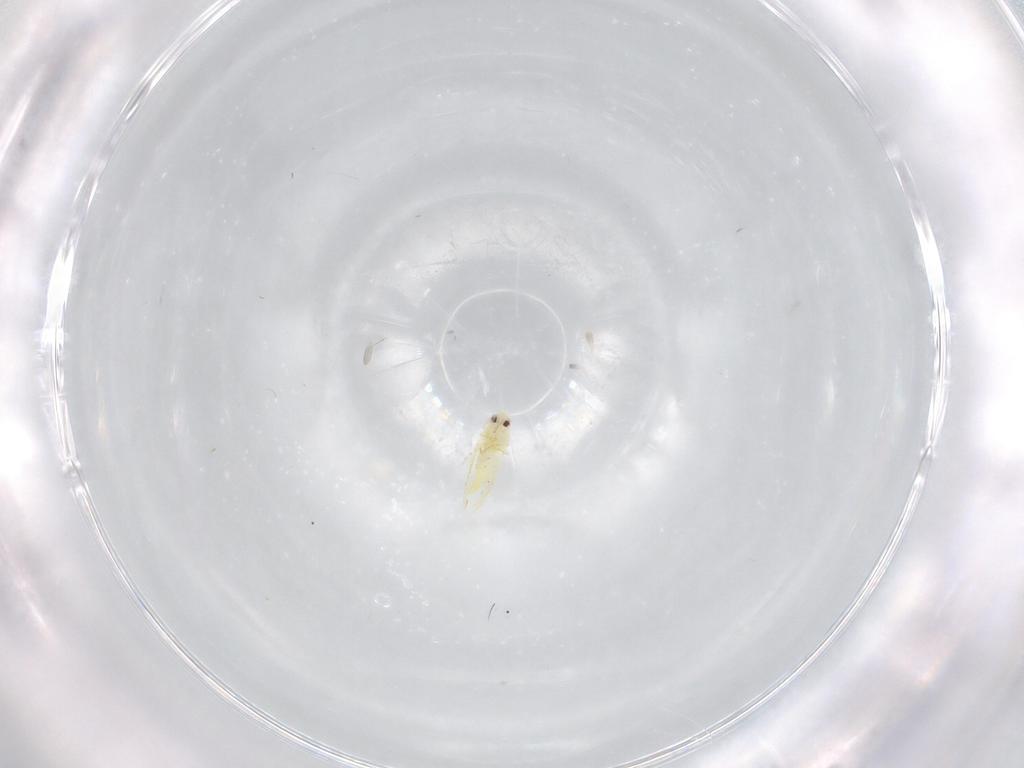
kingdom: Animalia
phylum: Arthropoda
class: Insecta
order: Hemiptera
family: Aleyrodidae
